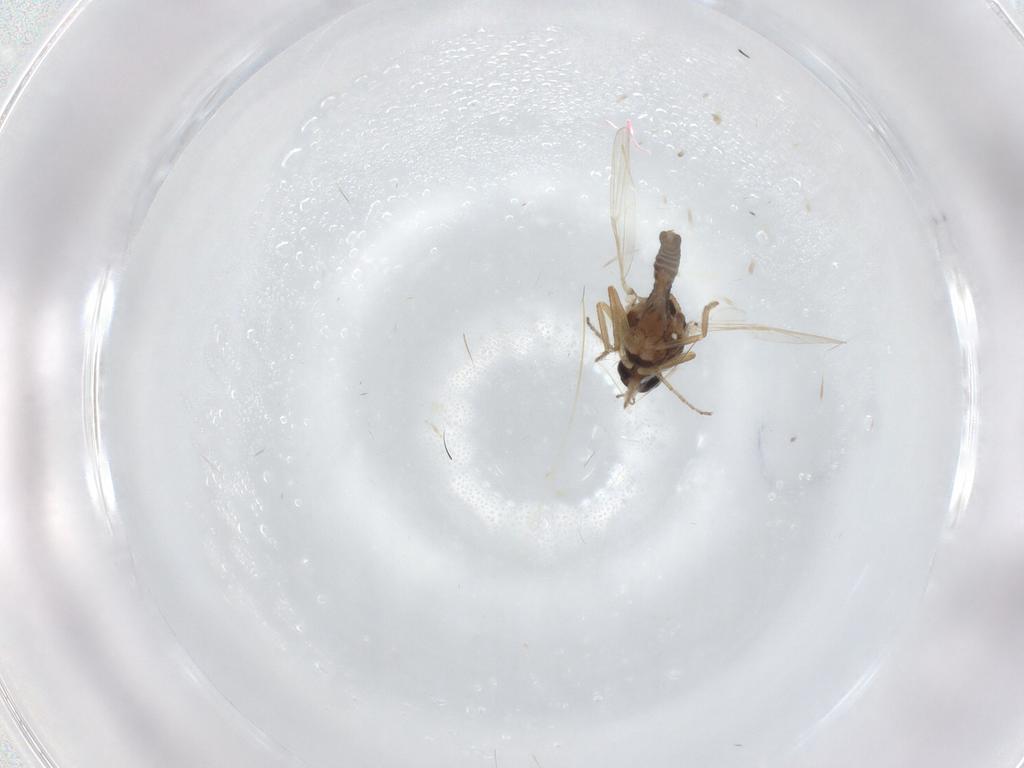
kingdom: Animalia
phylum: Arthropoda
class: Insecta
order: Diptera
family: Ceratopogonidae
